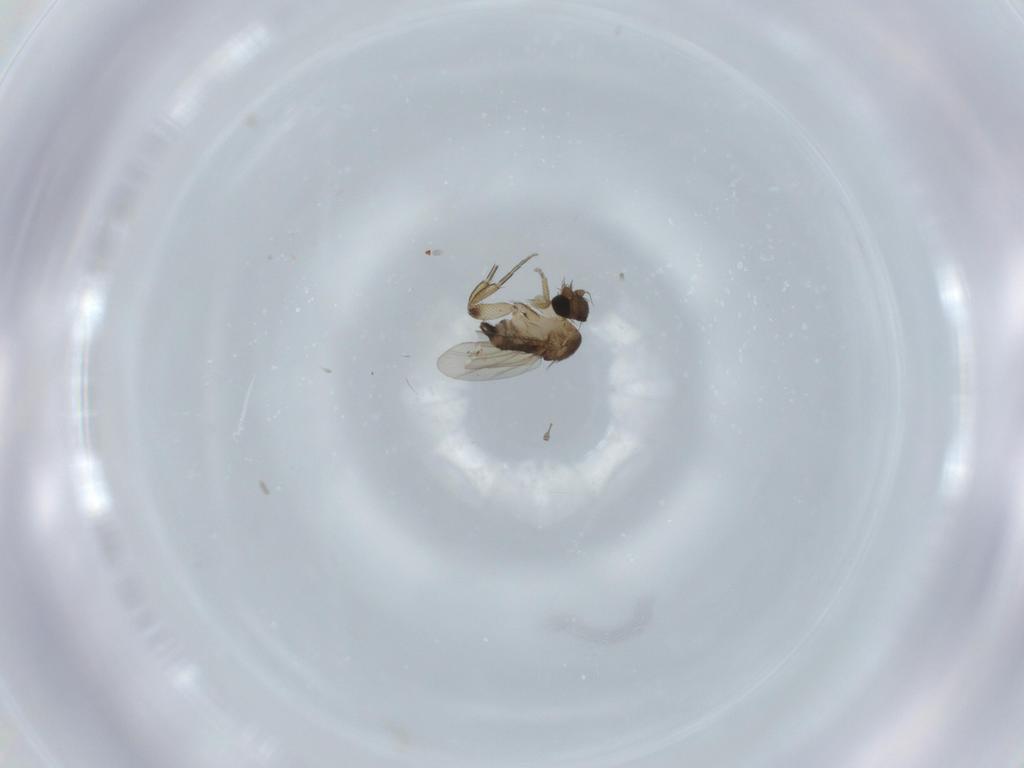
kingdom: Animalia
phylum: Arthropoda
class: Insecta
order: Diptera
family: Phoridae
